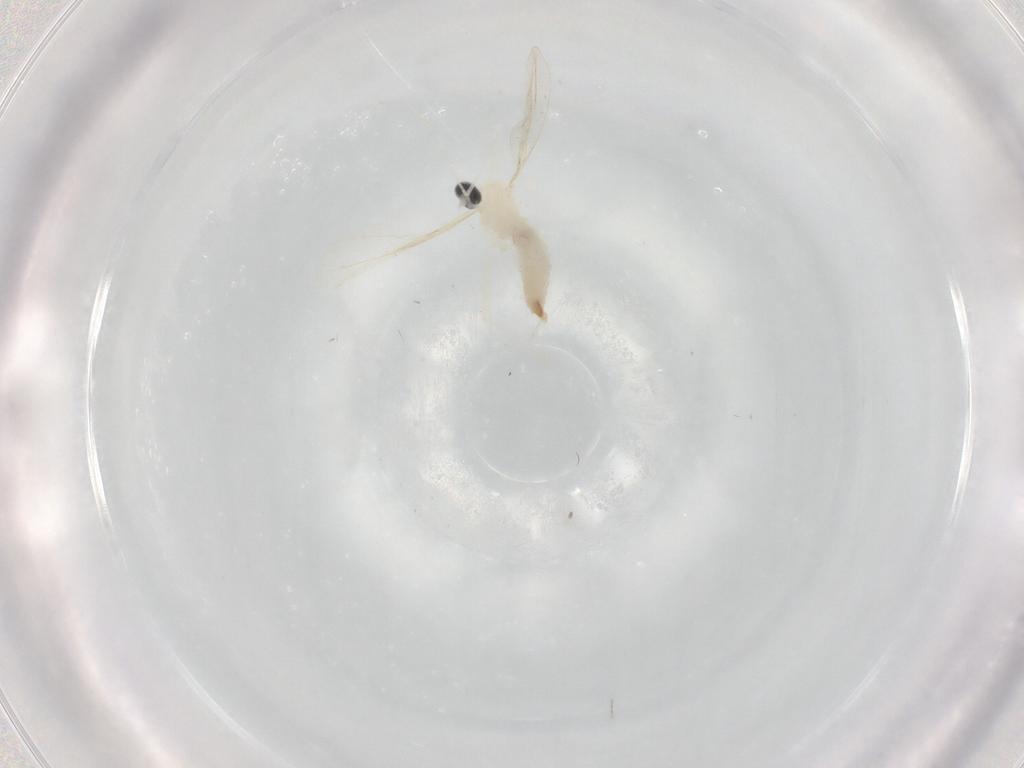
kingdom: Animalia
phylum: Arthropoda
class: Insecta
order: Diptera
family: Cecidomyiidae
